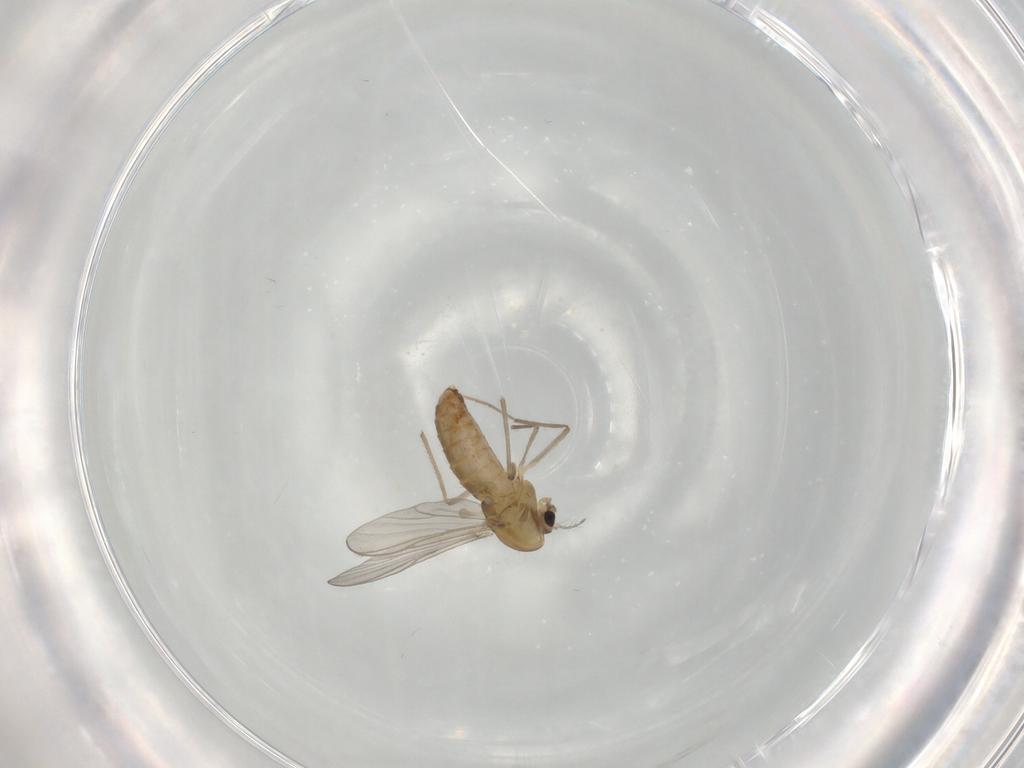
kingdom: Animalia
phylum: Arthropoda
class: Insecta
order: Diptera
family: Chironomidae
